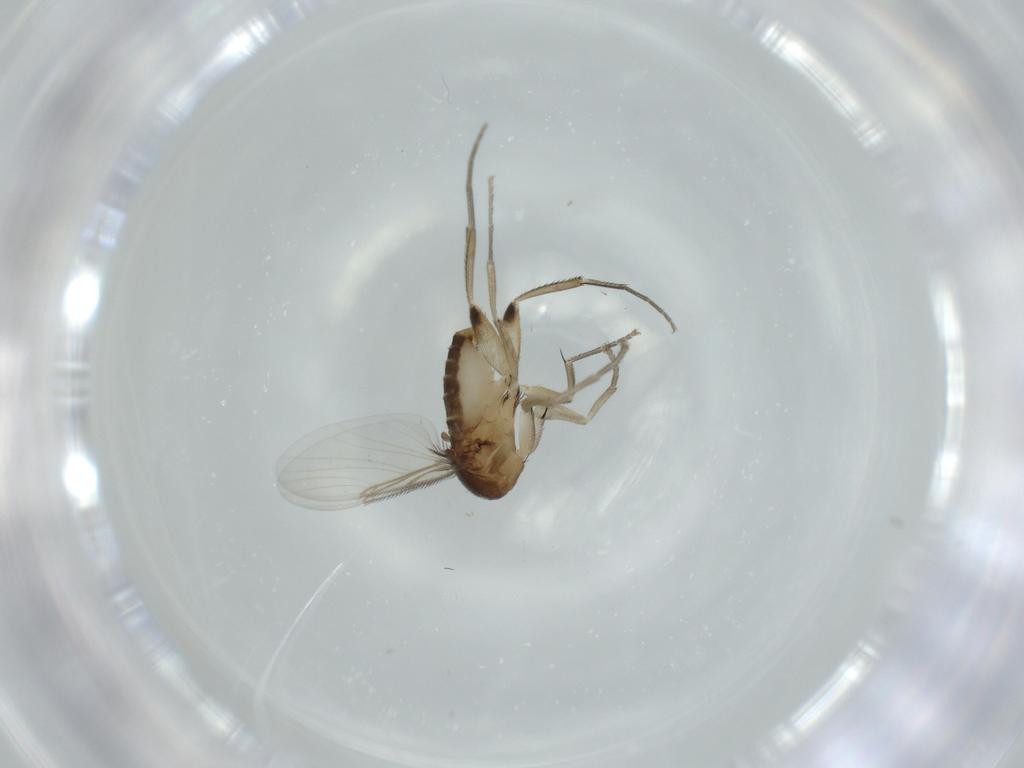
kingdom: Animalia
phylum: Arthropoda
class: Insecta
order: Diptera
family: Phoridae
